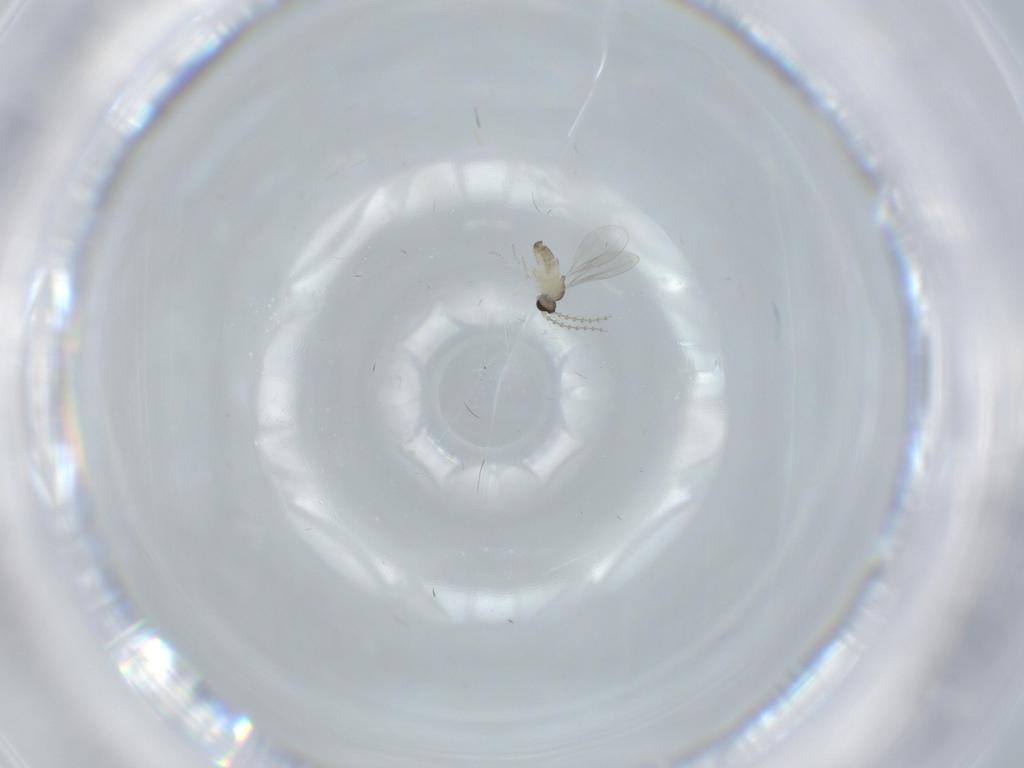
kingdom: Animalia
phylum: Arthropoda
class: Insecta
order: Diptera
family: Cecidomyiidae
